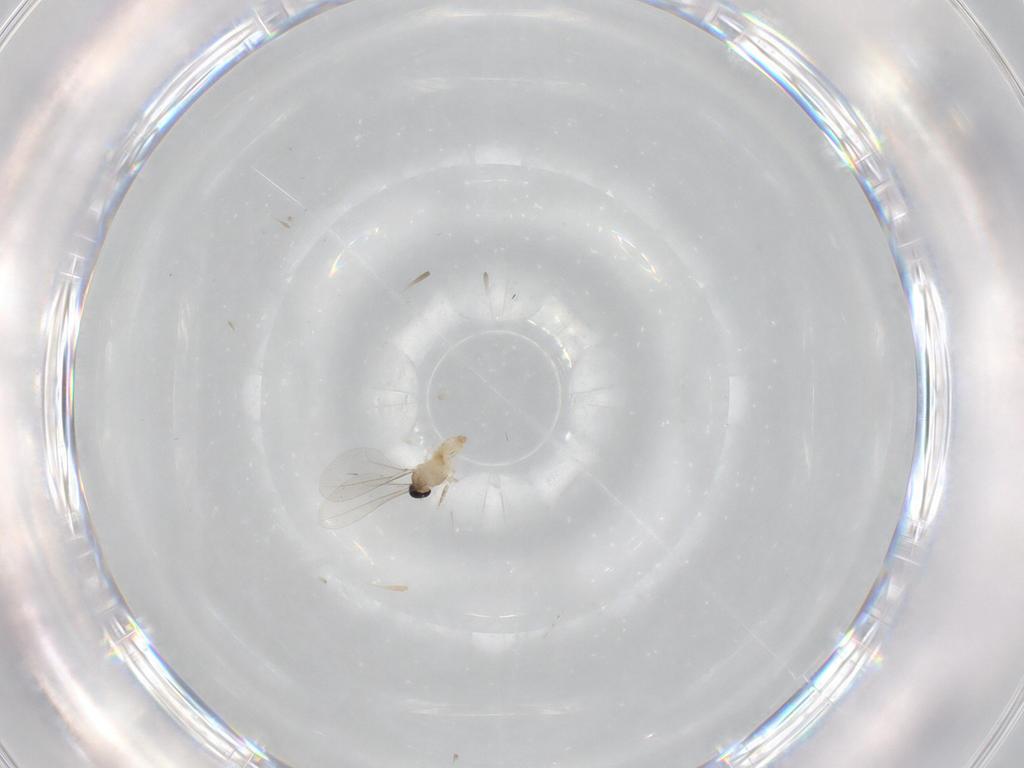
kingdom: Animalia
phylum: Arthropoda
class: Insecta
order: Diptera
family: Cecidomyiidae
